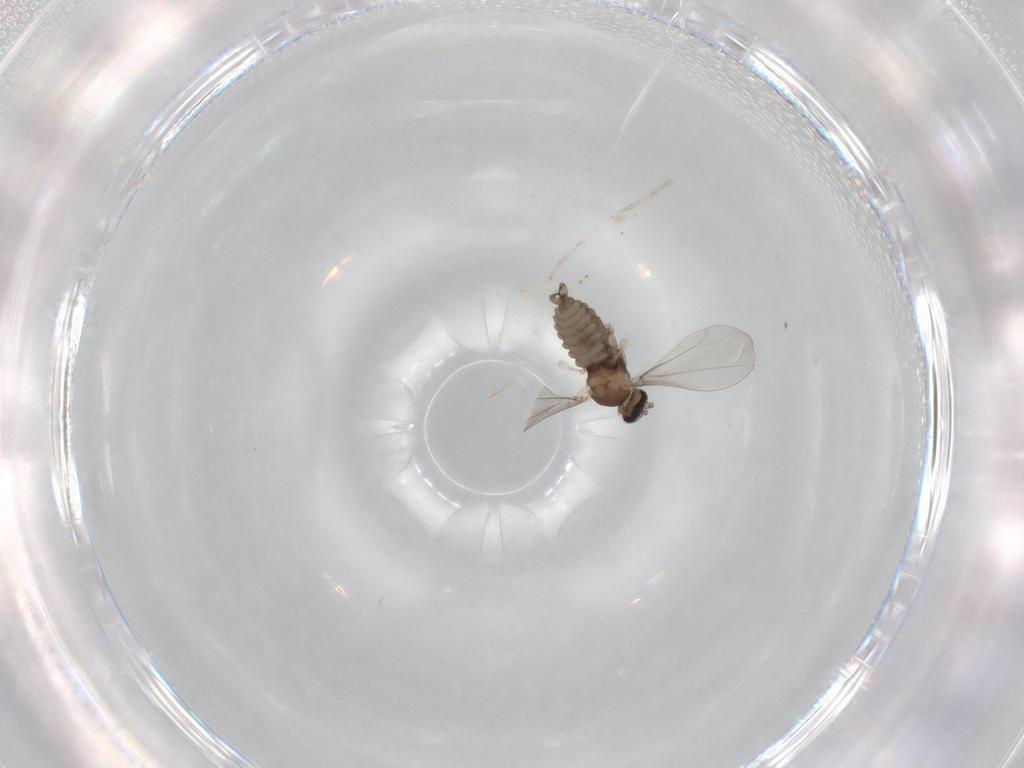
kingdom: Animalia
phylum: Arthropoda
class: Insecta
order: Diptera
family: Cecidomyiidae
